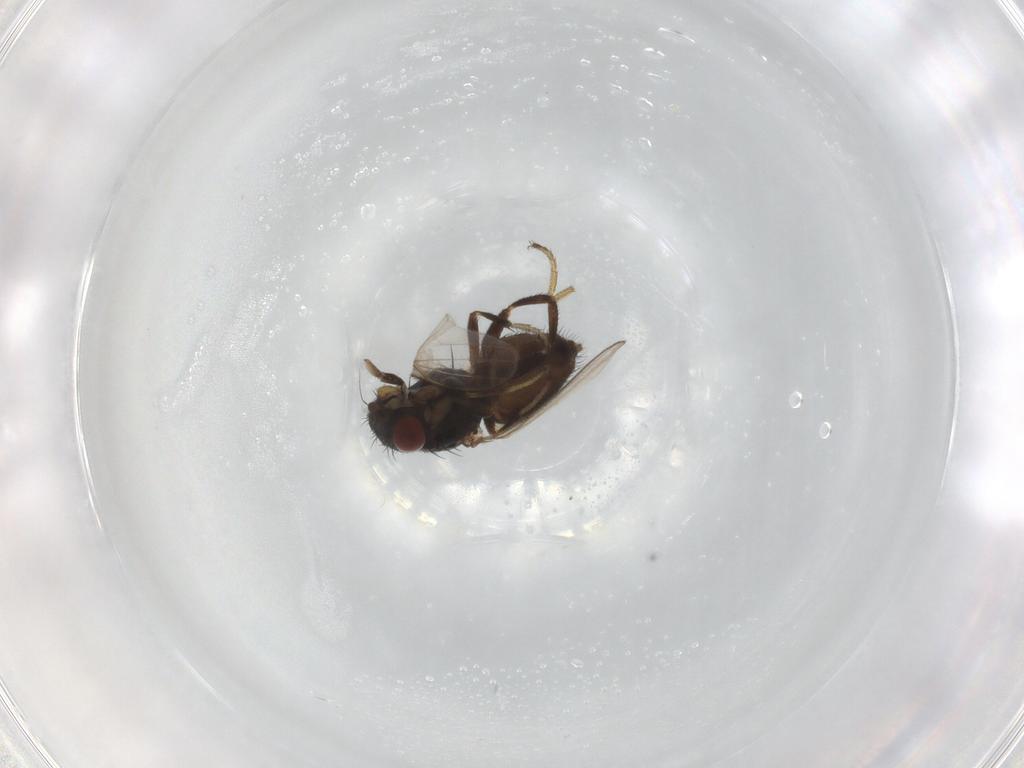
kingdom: Animalia
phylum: Arthropoda
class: Insecta
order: Diptera
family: Milichiidae
